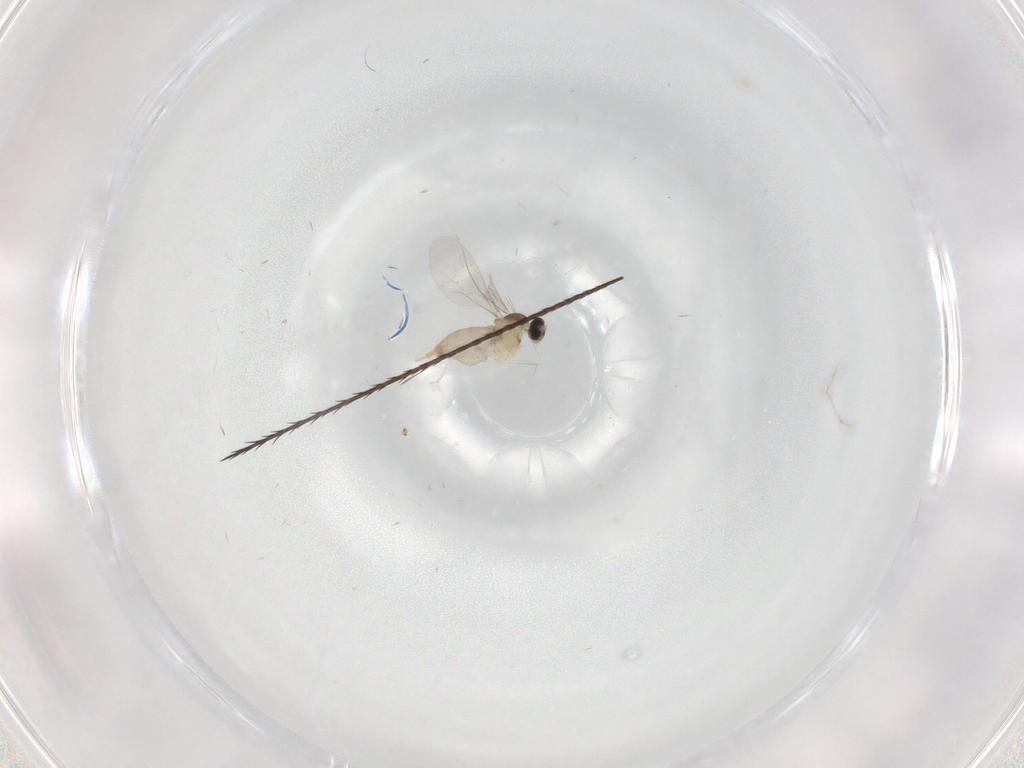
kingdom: Animalia
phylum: Arthropoda
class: Insecta
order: Diptera
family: Cecidomyiidae
